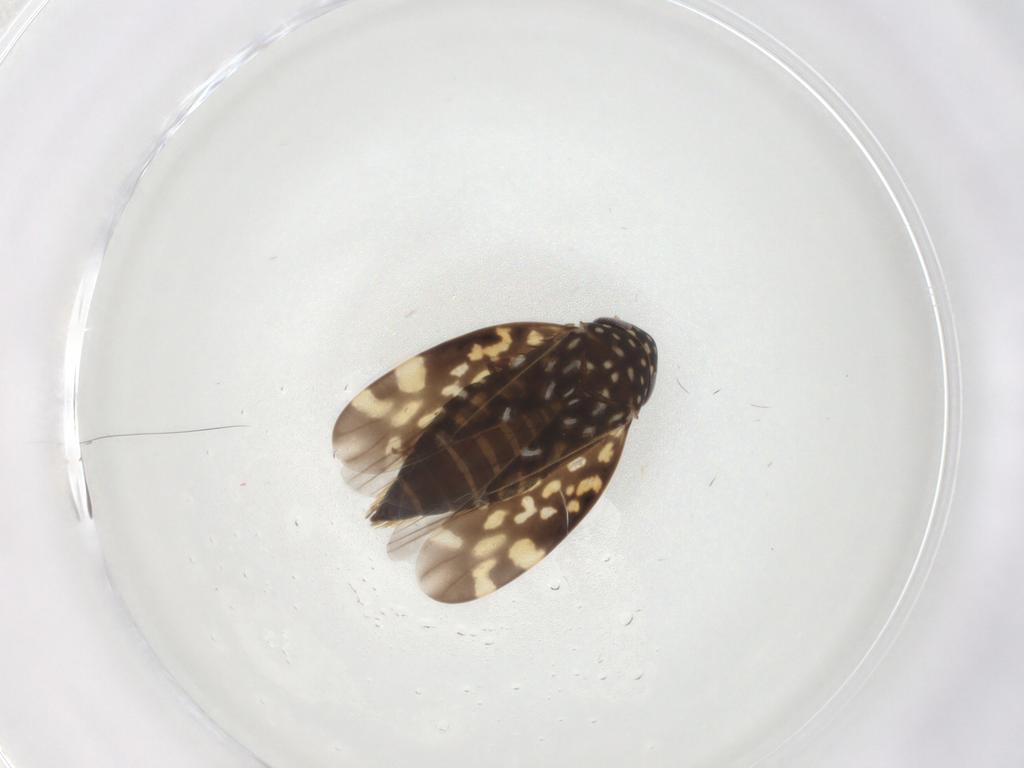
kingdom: Animalia
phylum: Arthropoda
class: Insecta
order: Hemiptera
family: Cicadellidae
